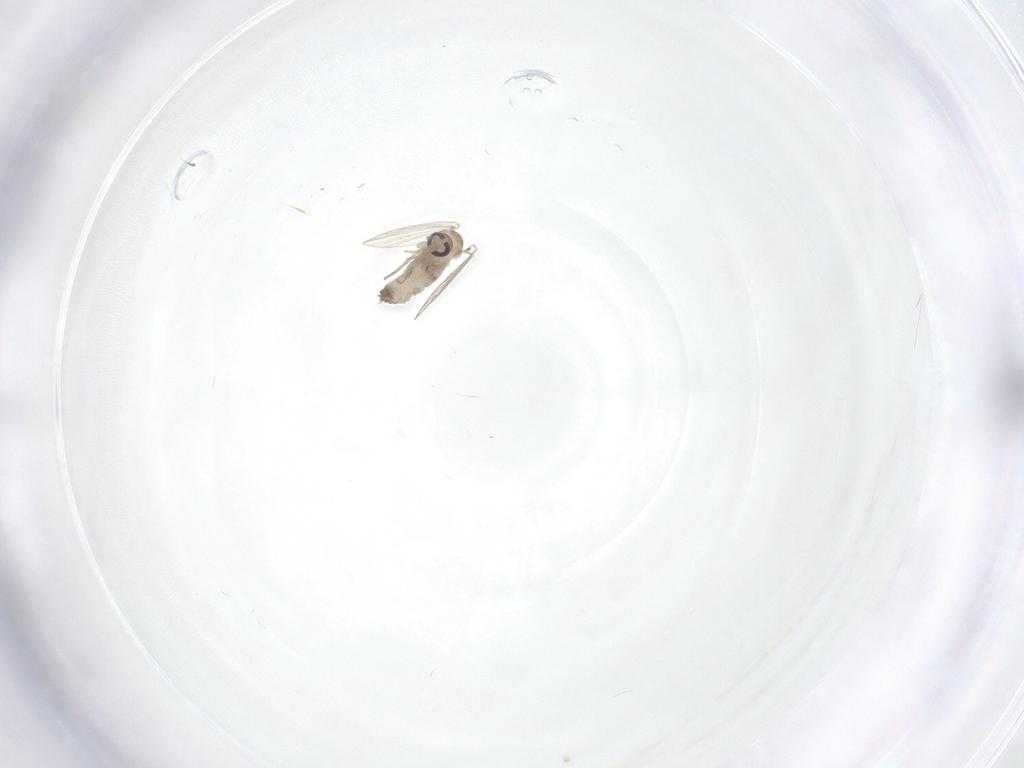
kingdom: Animalia
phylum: Arthropoda
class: Insecta
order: Diptera
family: Psychodidae
